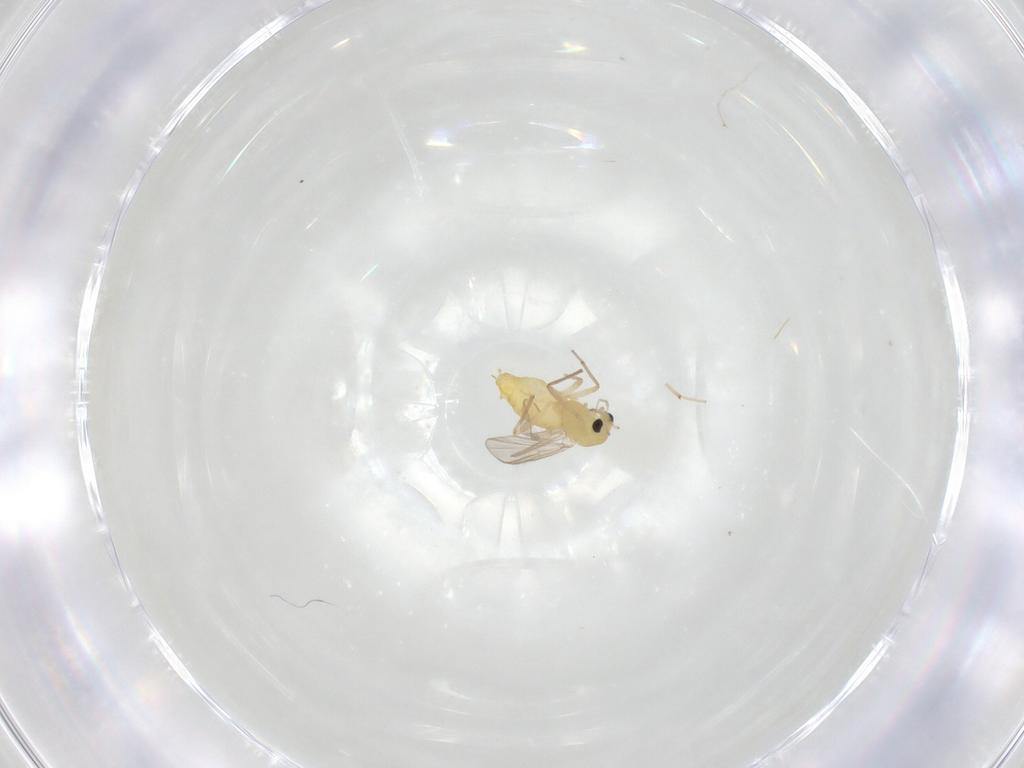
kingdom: Animalia
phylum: Arthropoda
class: Insecta
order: Diptera
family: Chironomidae
